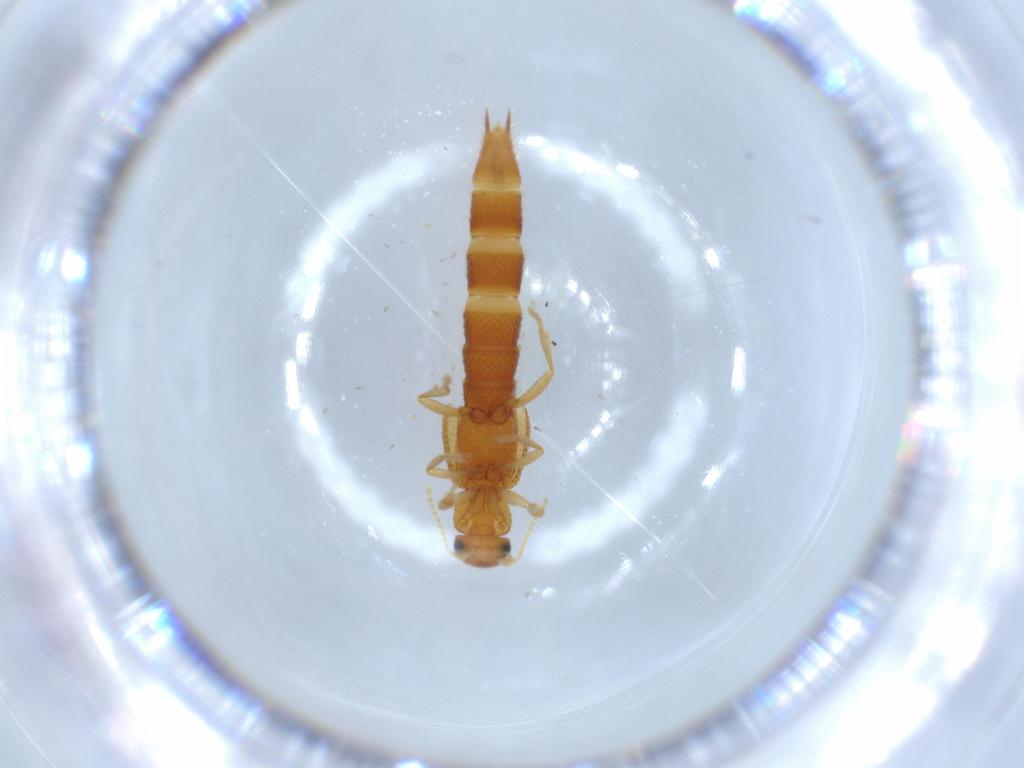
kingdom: Animalia
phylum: Arthropoda
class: Insecta
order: Coleoptera
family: Staphylinidae
